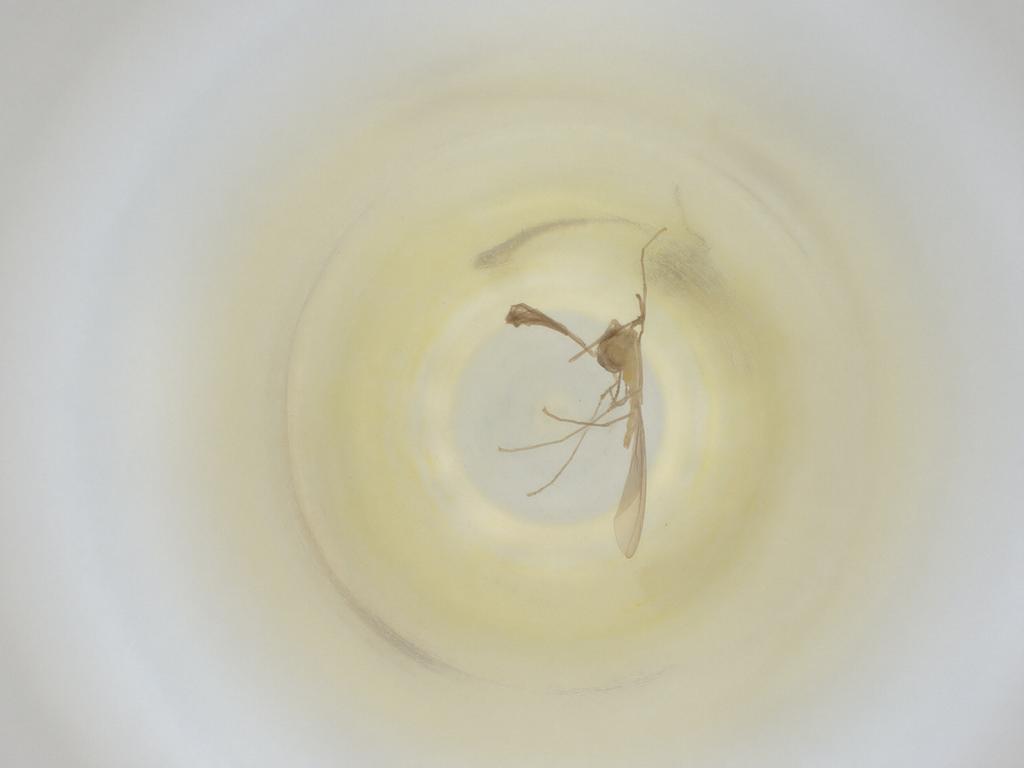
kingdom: Animalia
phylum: Arthropoda
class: Insecta
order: Diptera
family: Cecidomyiidae
